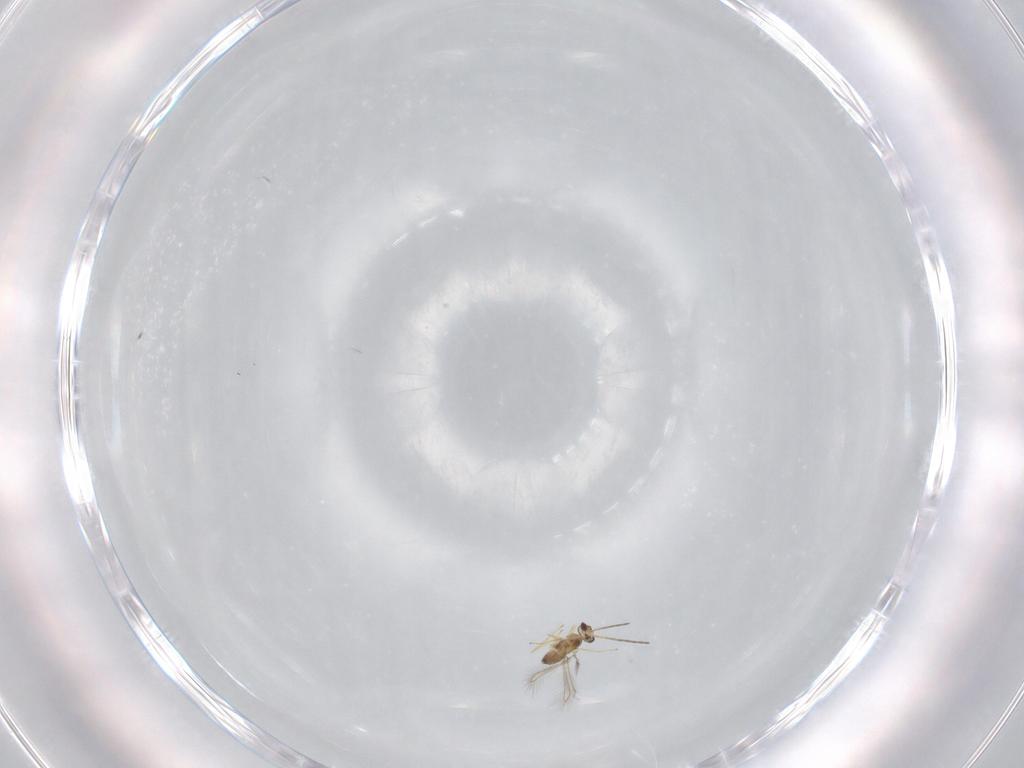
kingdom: Animalia
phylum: Arthropoda
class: Insecta
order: Hymenoptera
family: Mymaridae
